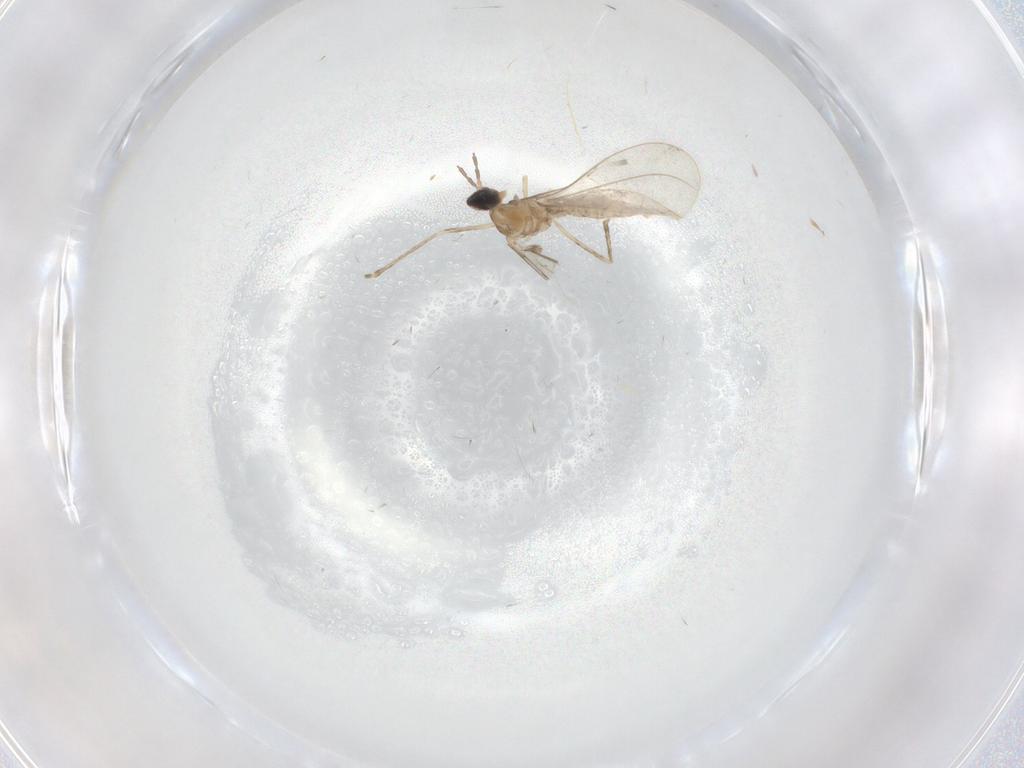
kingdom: Animalia
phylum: Arthropoda
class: Insecta
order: Diptera
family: Cecidomyiidae
